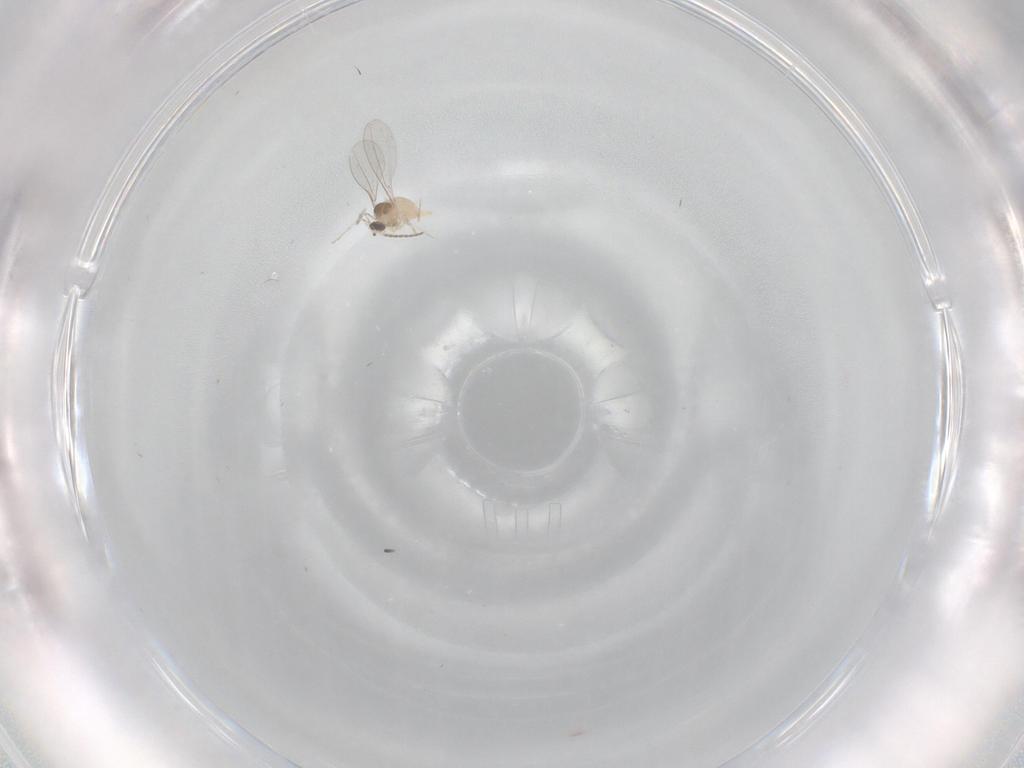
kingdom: Animalia
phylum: Arthropoda
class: Insecta
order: Diptera
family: Cecidomyiidae
